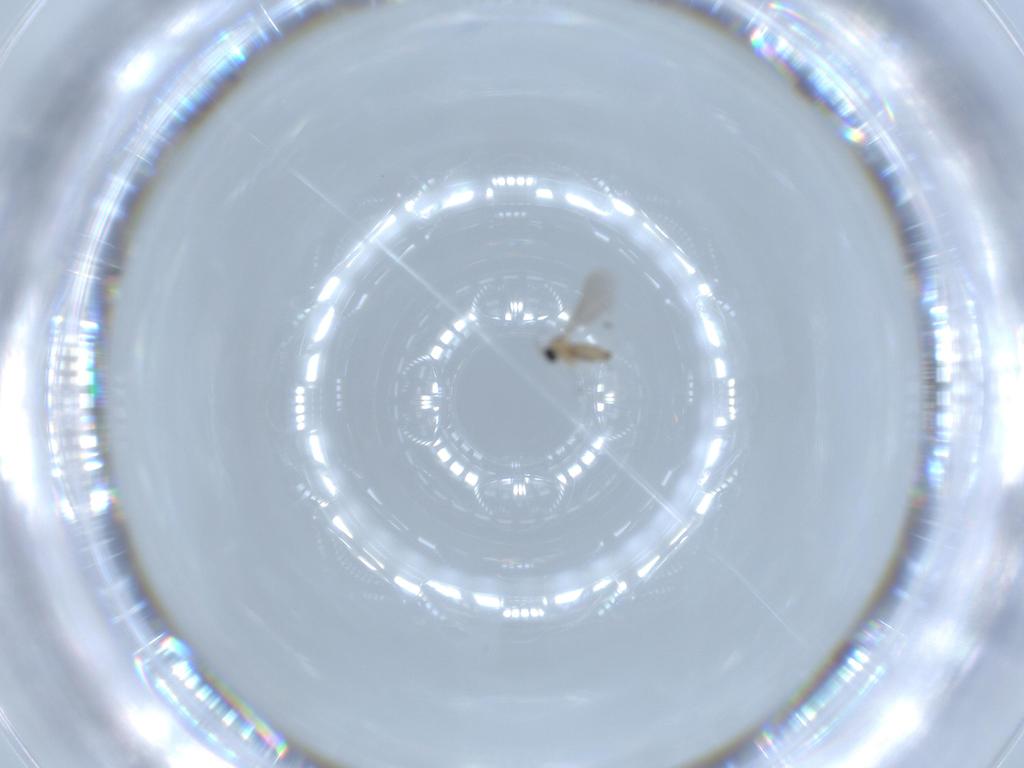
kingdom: Animalia
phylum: Arthropoda
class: Insecta
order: Diptera
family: Cecidomyiidae
